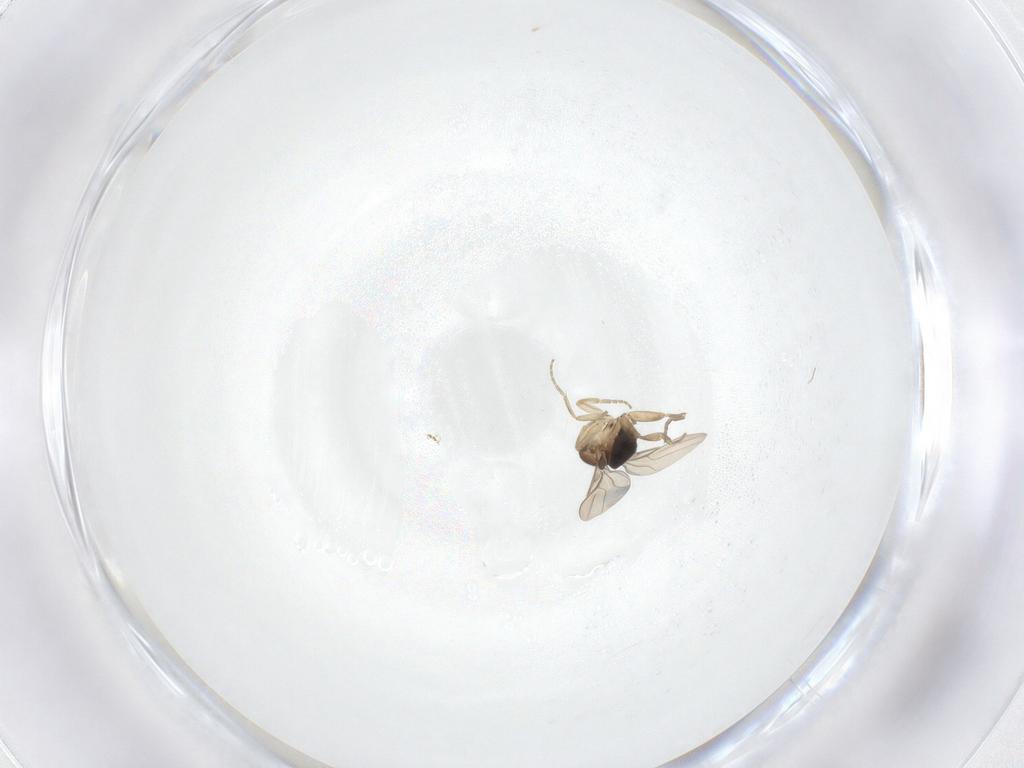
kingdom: Animalia
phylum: Arthropoda
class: Insecta
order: Diptera
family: Phoridae
